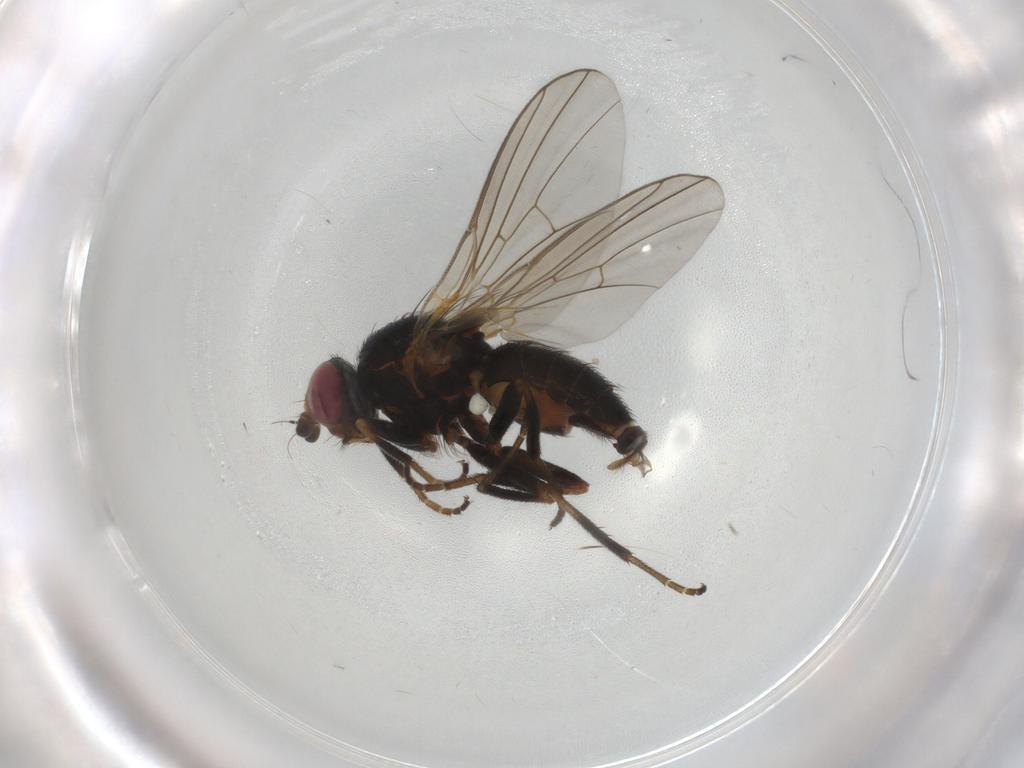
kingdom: Animalia
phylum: Arthropoda
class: Insecta
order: Diptera
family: Agromyzidae
